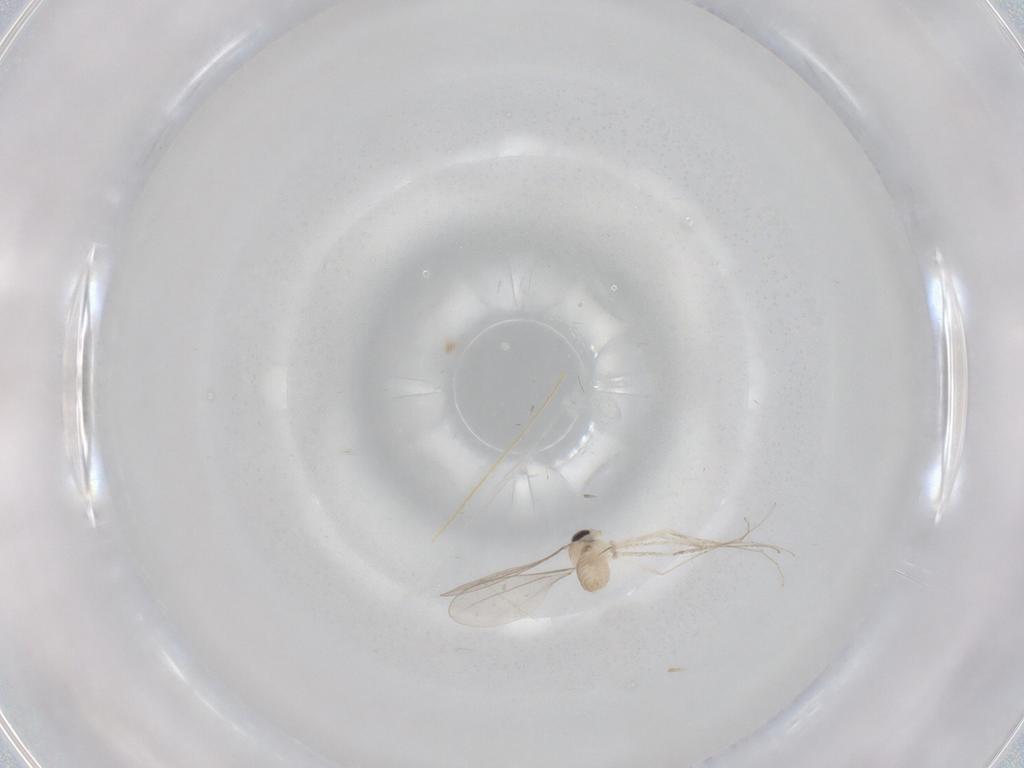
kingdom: Animalia
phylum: Arthropoda
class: Insecta
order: Diptera
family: Cecidomyiidae
